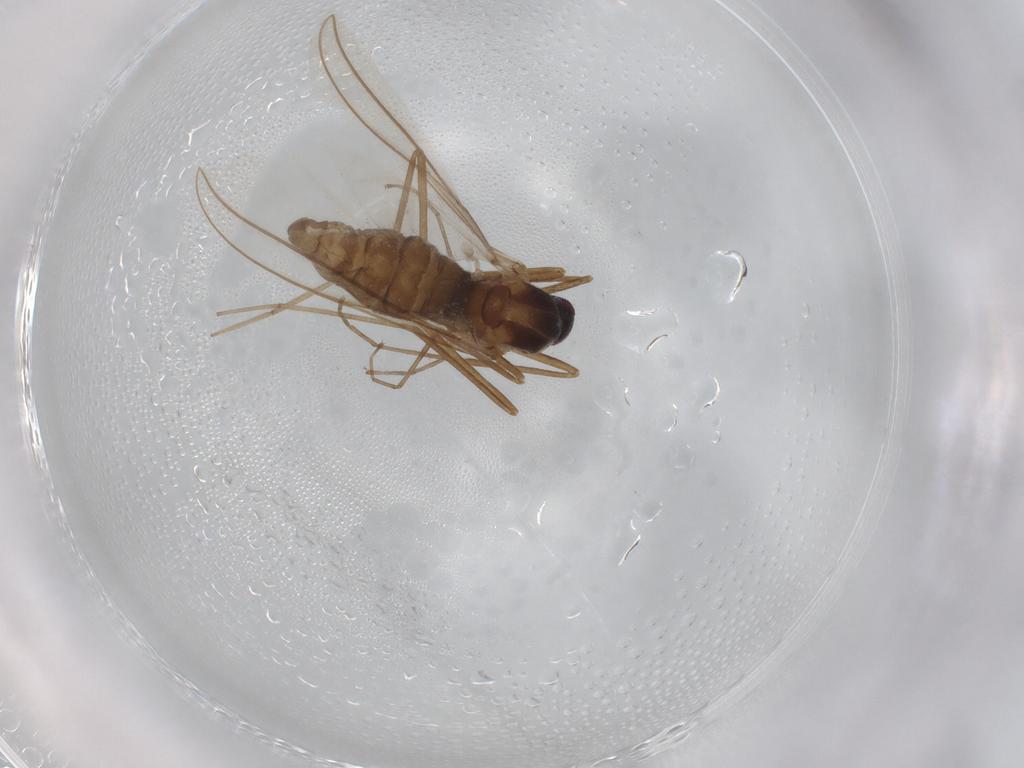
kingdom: Animalia
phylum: Arthropoda
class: Insecta
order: Diptera
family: Cecidomyiidae
